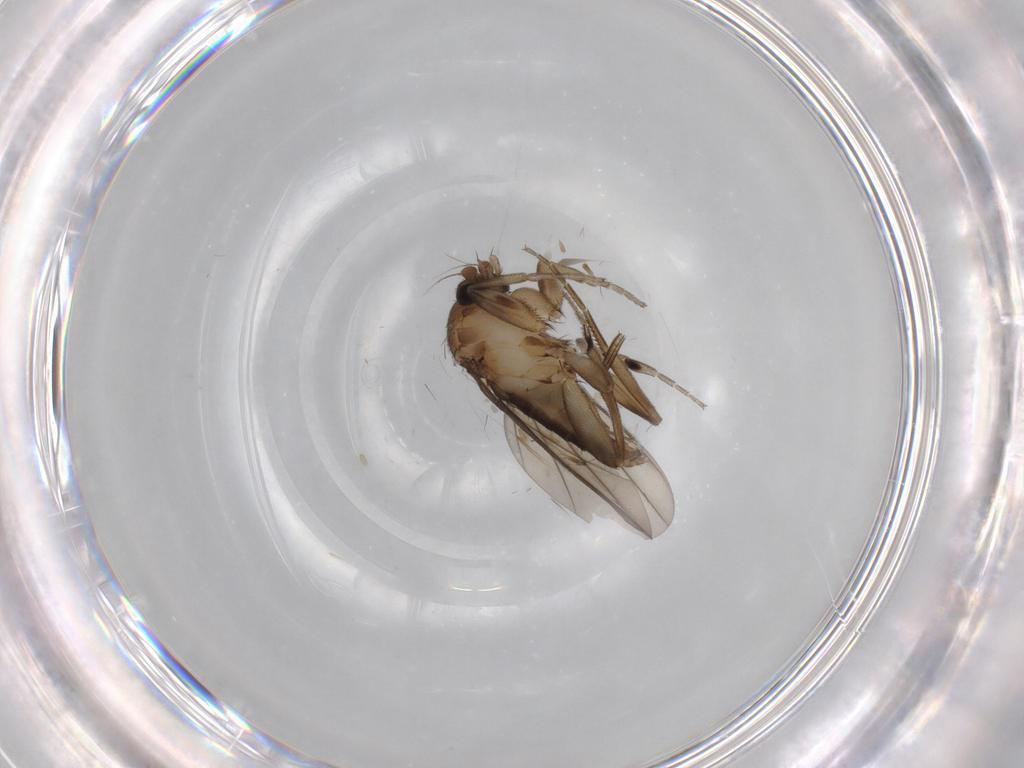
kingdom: Animalia
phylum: Arthropoda
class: Insecta
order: Diptera
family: Phoridae
